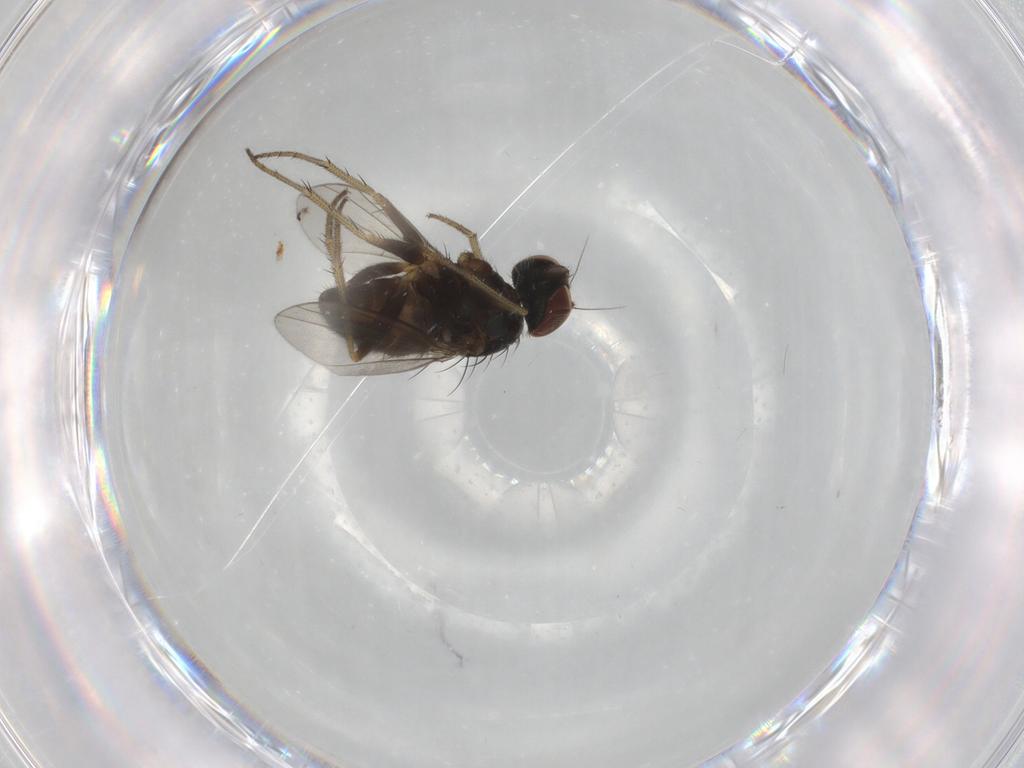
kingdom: Animalia
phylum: Arthropoda
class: Insecta
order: Diptera
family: Dolichopodidae
